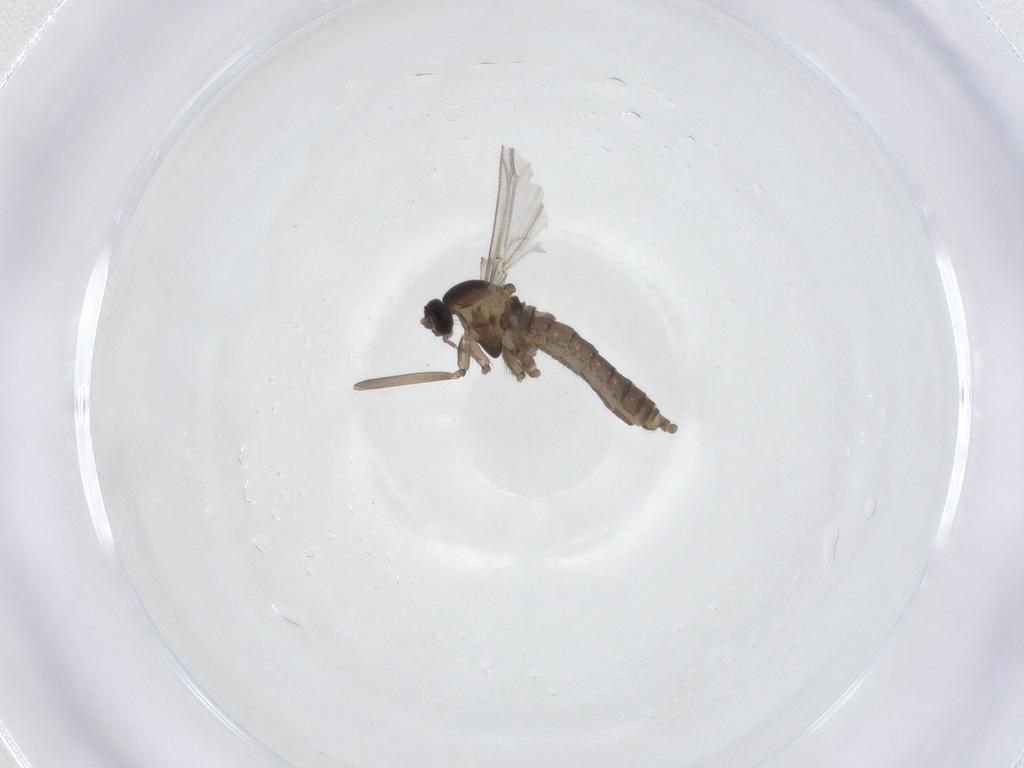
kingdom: Animalia
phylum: Arthropoda
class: Insecta
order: Diptera
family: Cecidomyiidae
